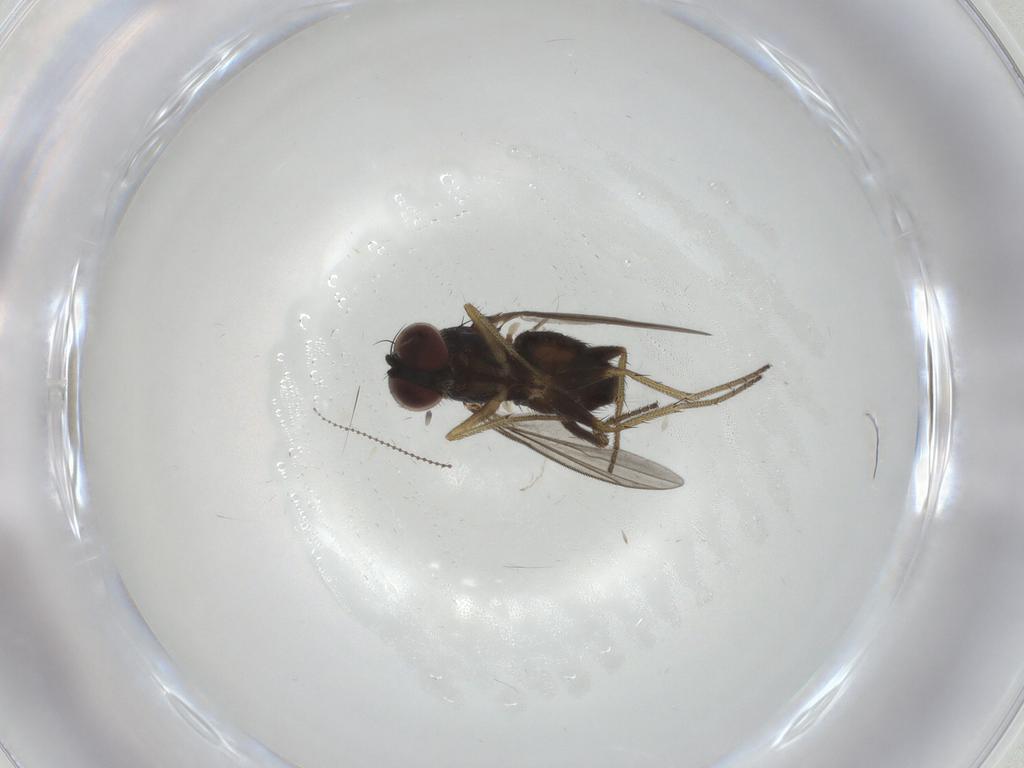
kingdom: Animalia
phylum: Arthropoda
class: Insecta
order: Diptera
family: Cecidomyiidae
